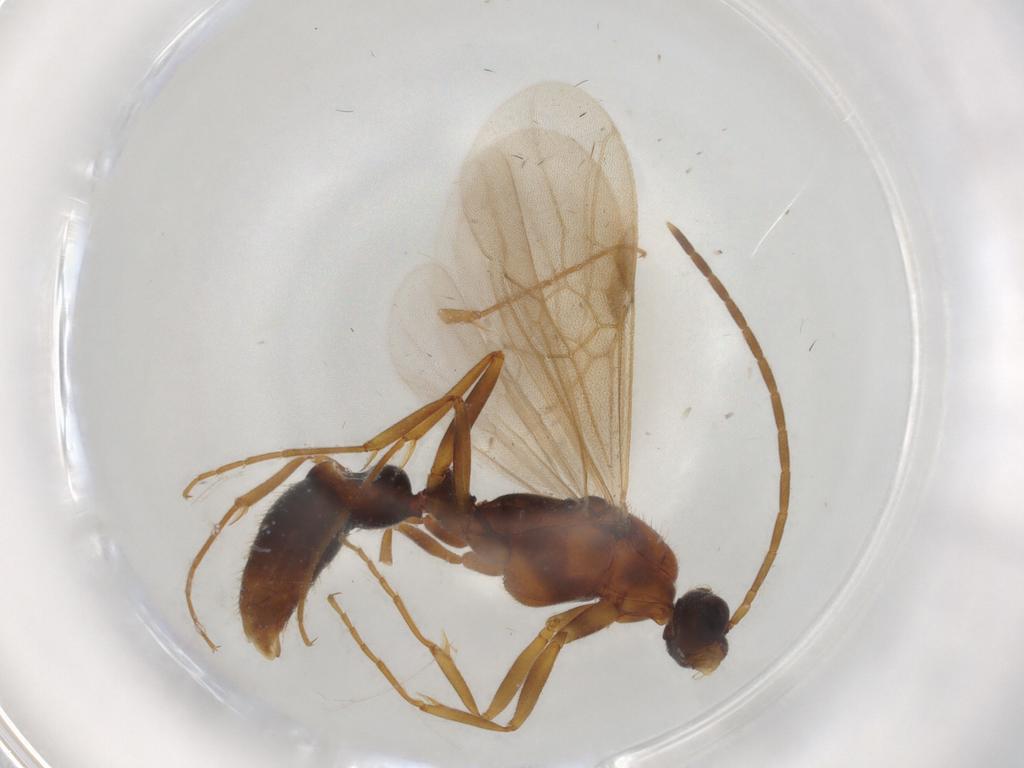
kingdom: Animalia
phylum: Arthropoda
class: Insecta
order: Hymenoptera
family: Formicidae
